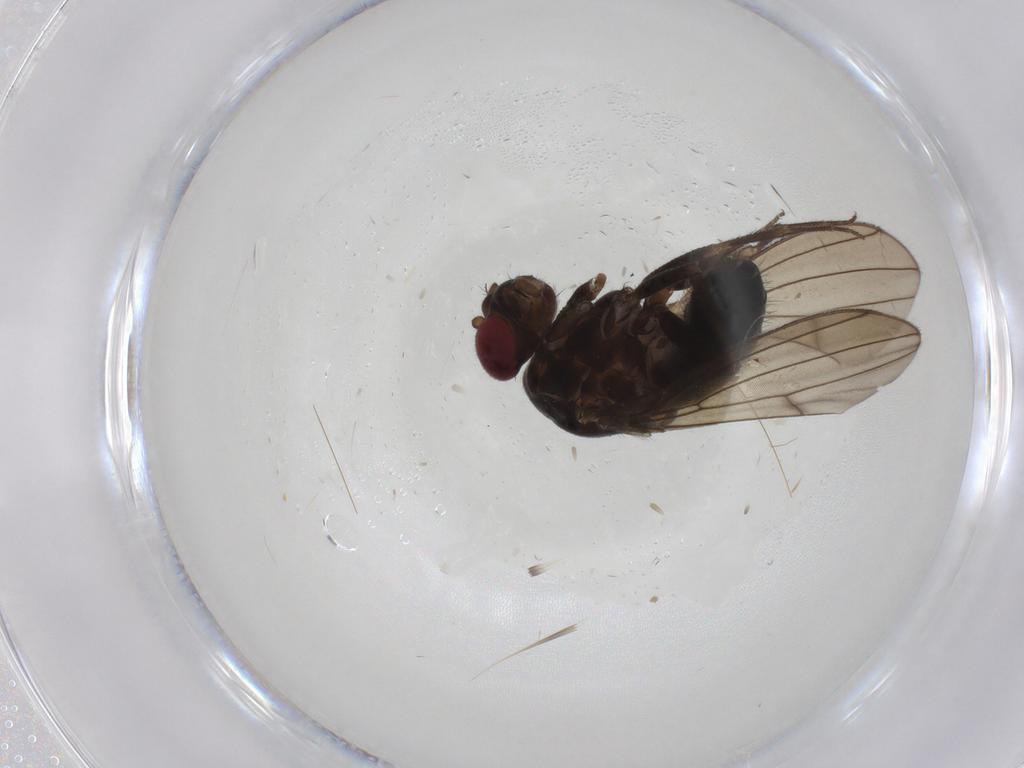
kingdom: Animalia
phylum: Arthropoda
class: Insecta
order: Diptera
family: Drosophilidae
